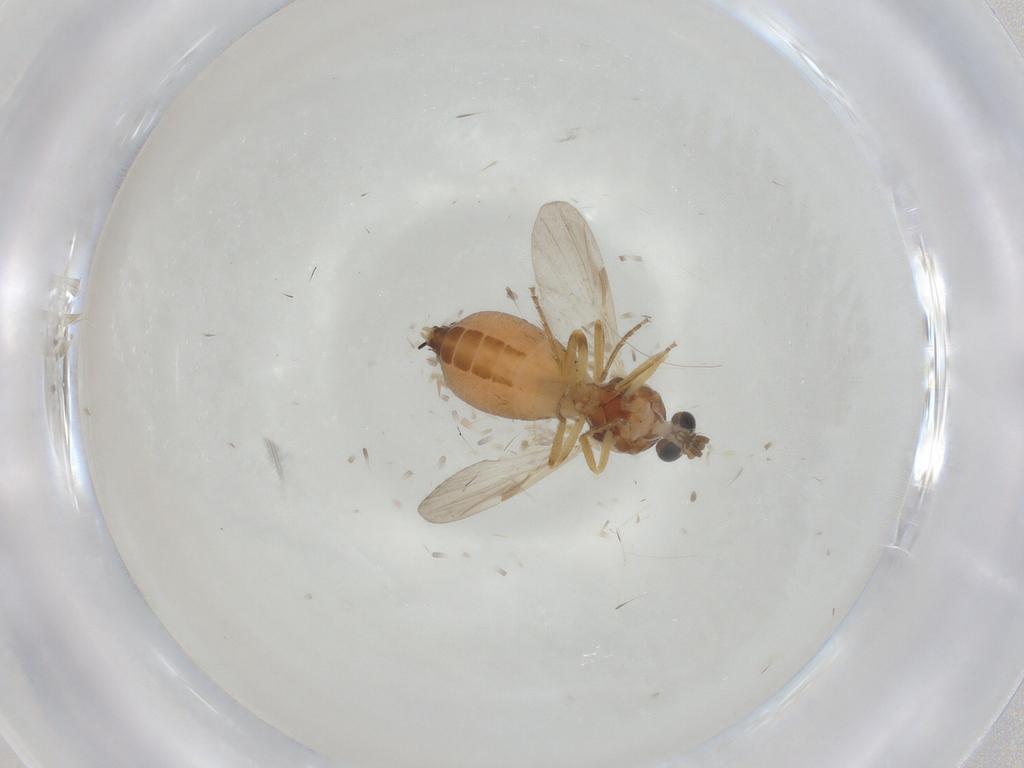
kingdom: Animalia
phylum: Arthropoda
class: Insecta
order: Diptera
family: Ceratopogonidae
